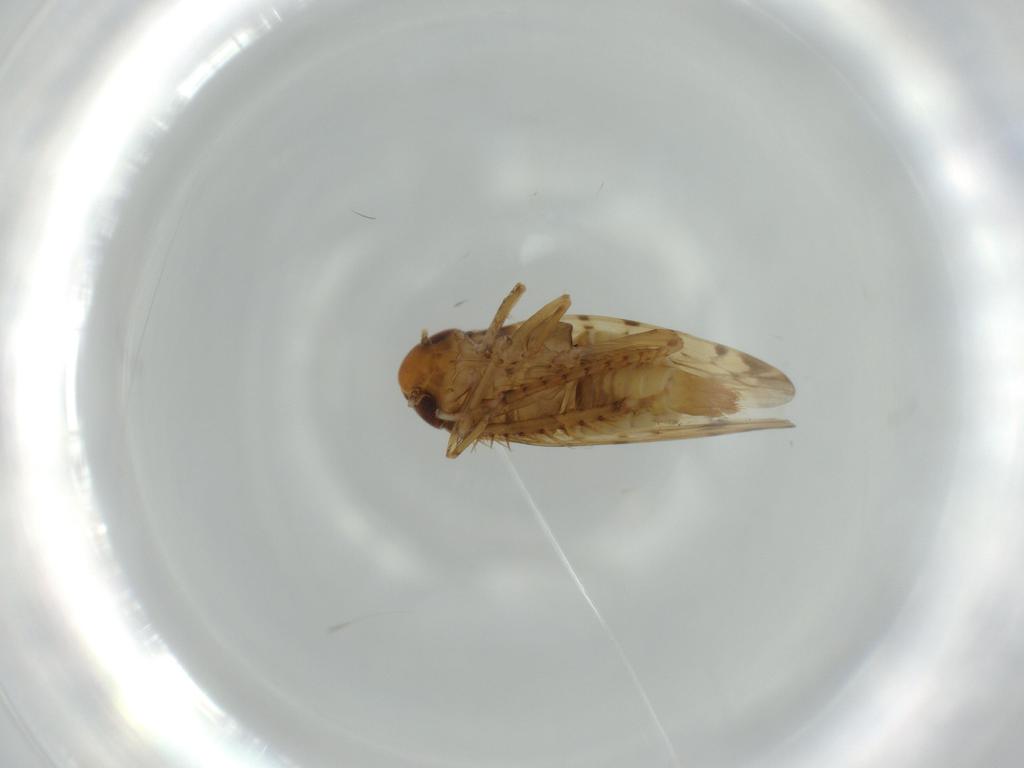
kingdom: Animalia
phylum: Arthropoda
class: Insecta
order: Hemiptera
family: Cicadellidae
